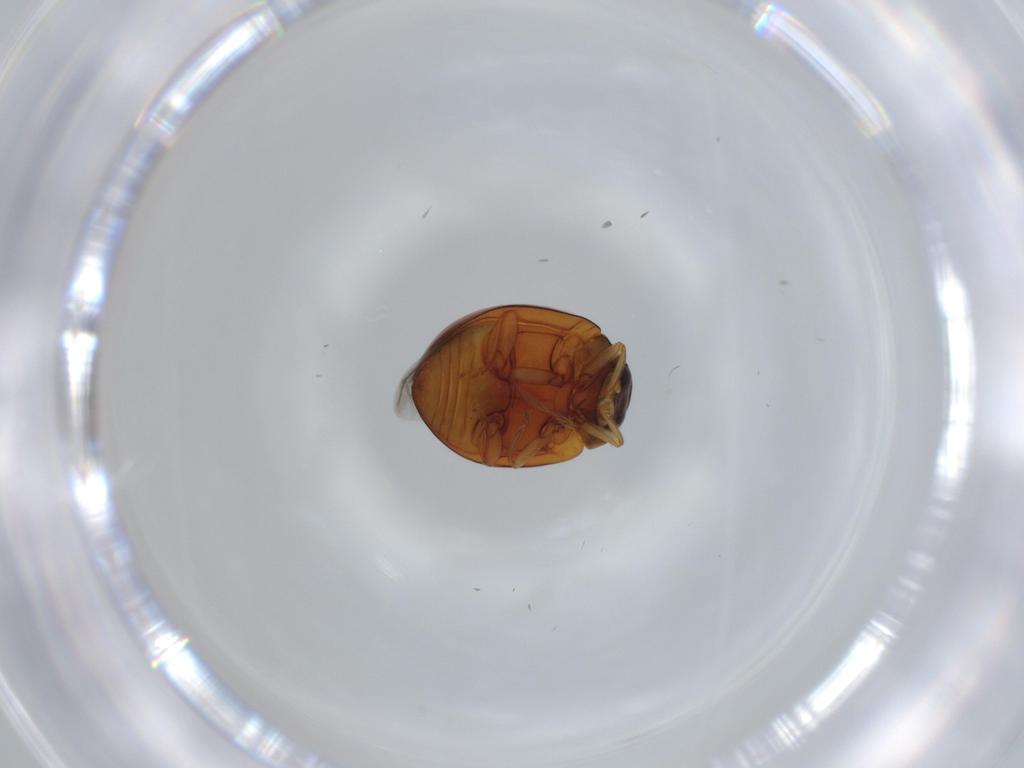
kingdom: Animalia
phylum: Arthropoda
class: Insecta
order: Coleoptera
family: Coccinellidae
